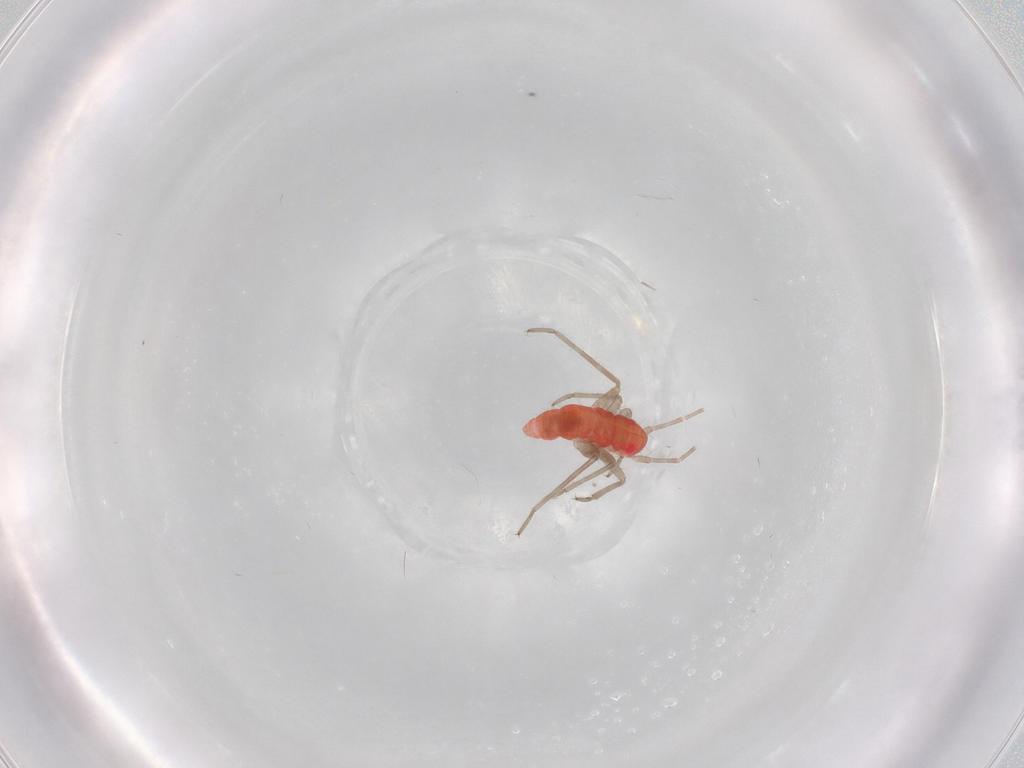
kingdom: Animalia
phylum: Arthropoda
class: Insecta
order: Hemiptera
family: Miridae
